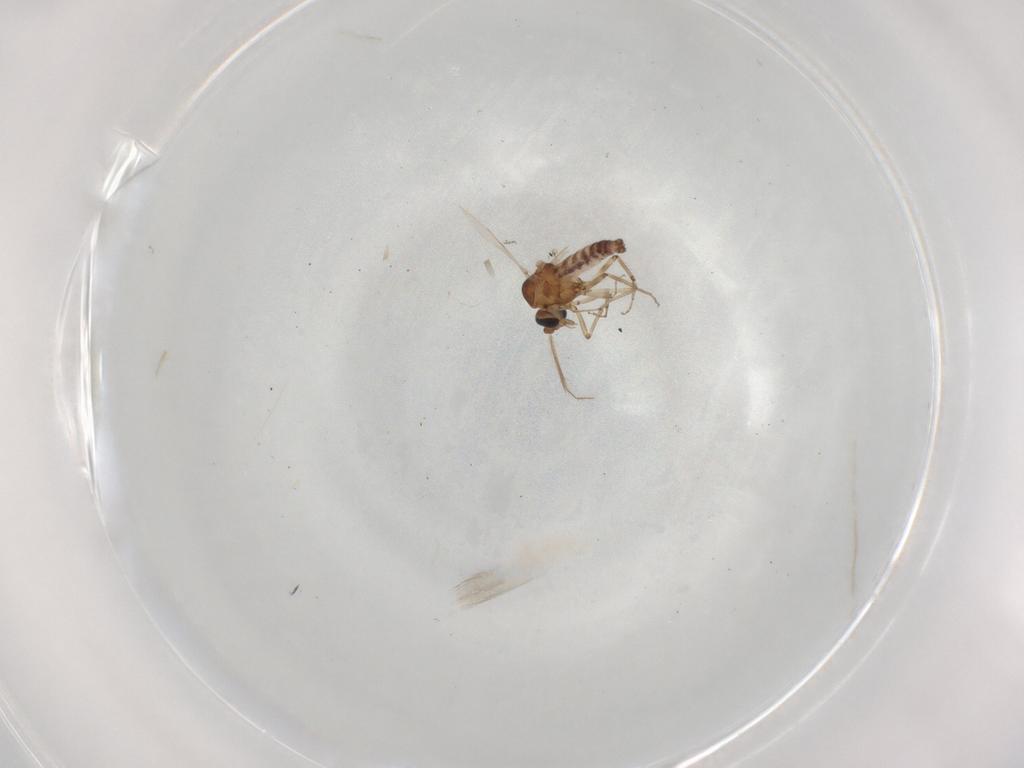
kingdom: Animalia
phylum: Arthropoda
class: Insecta
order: Diptera
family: Ceratopogonidae
